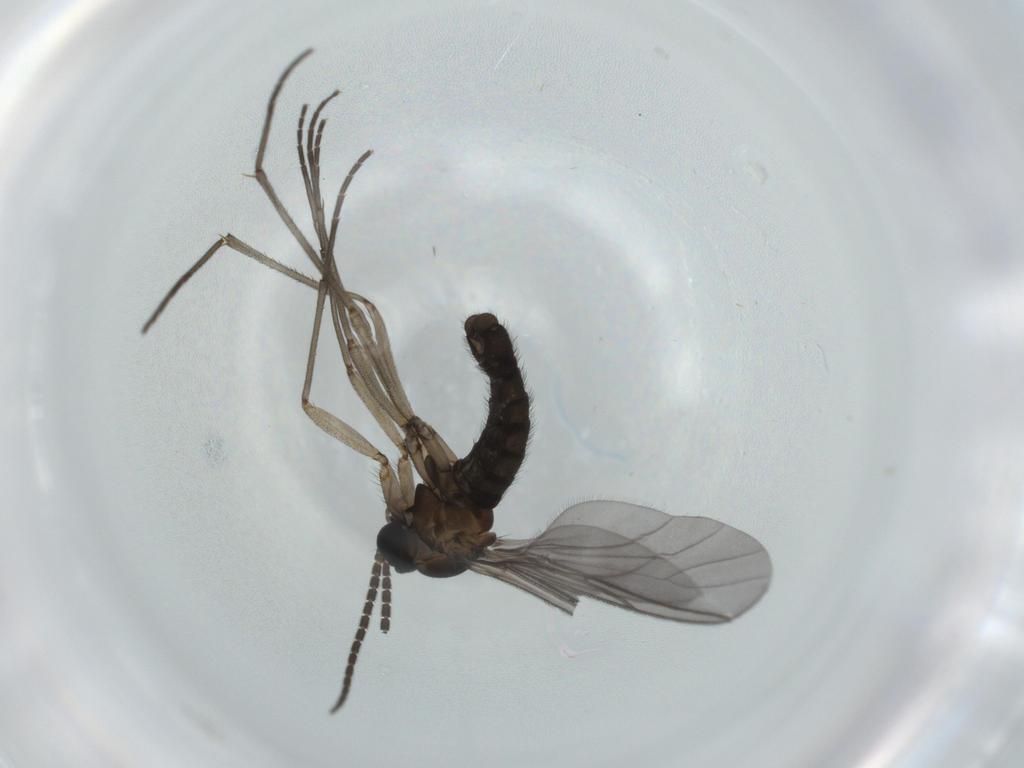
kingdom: Animalia
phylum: Arthropoda
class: Insecta
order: Diptera
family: Sciaridae
